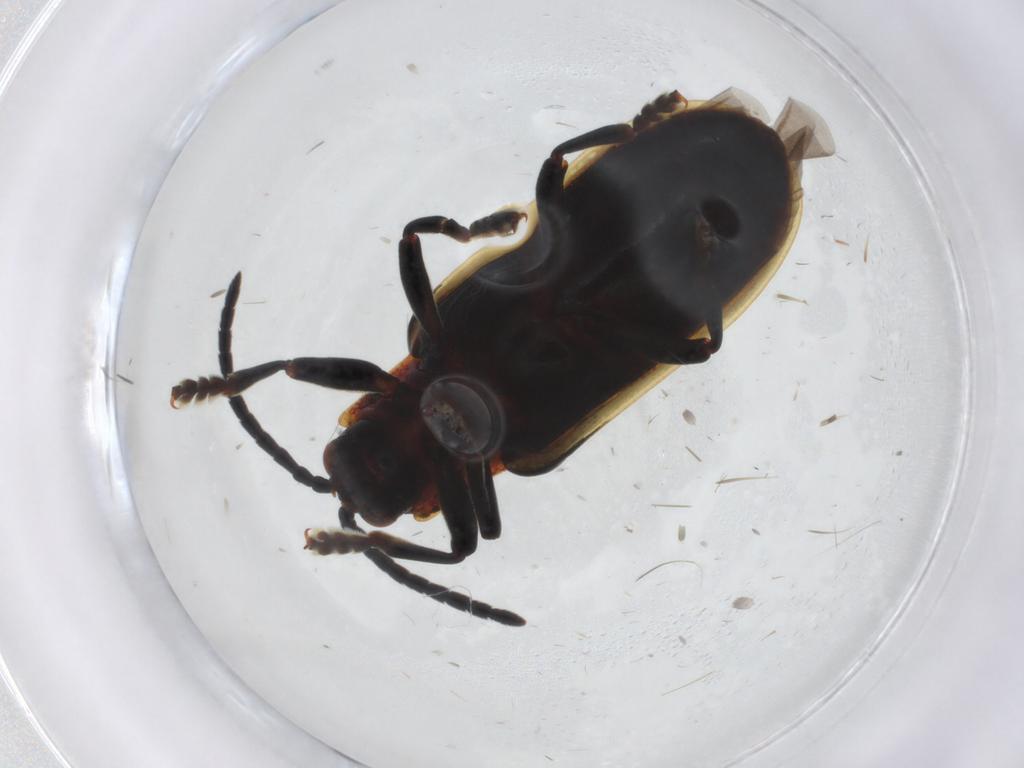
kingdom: Animalia
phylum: Arthropoda
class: Insecta
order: Coleoptera
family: Chrysomelidae
